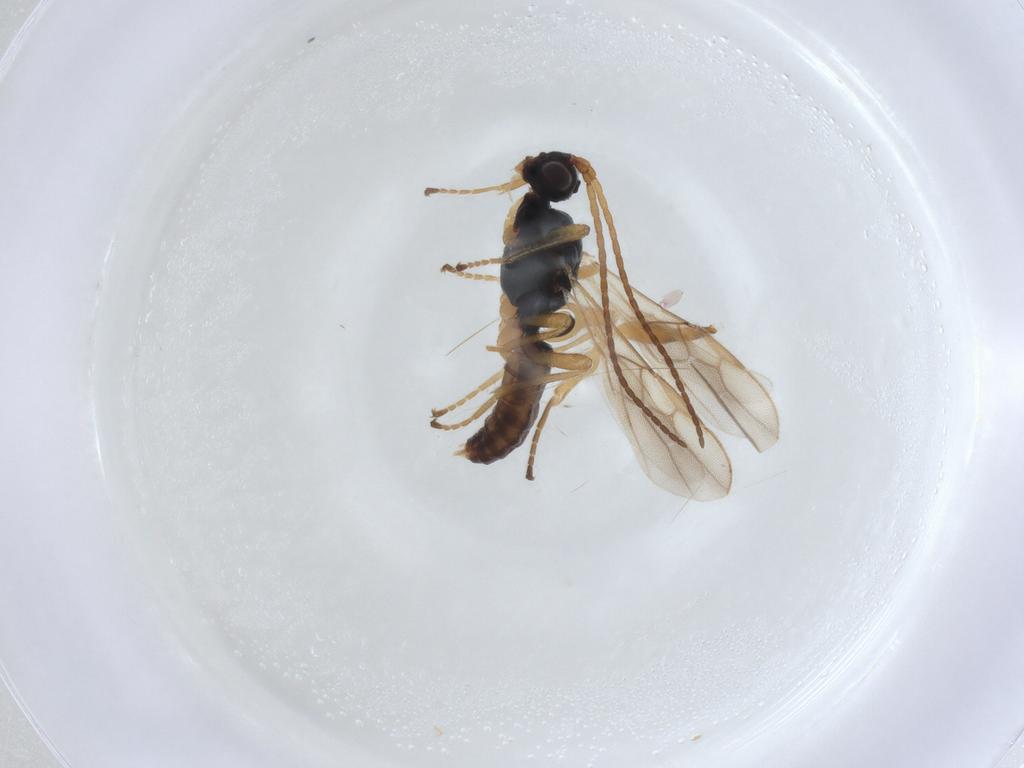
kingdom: Animalia
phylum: Arthropoda
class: Insecta
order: Hymenoptera
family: Braconidae
